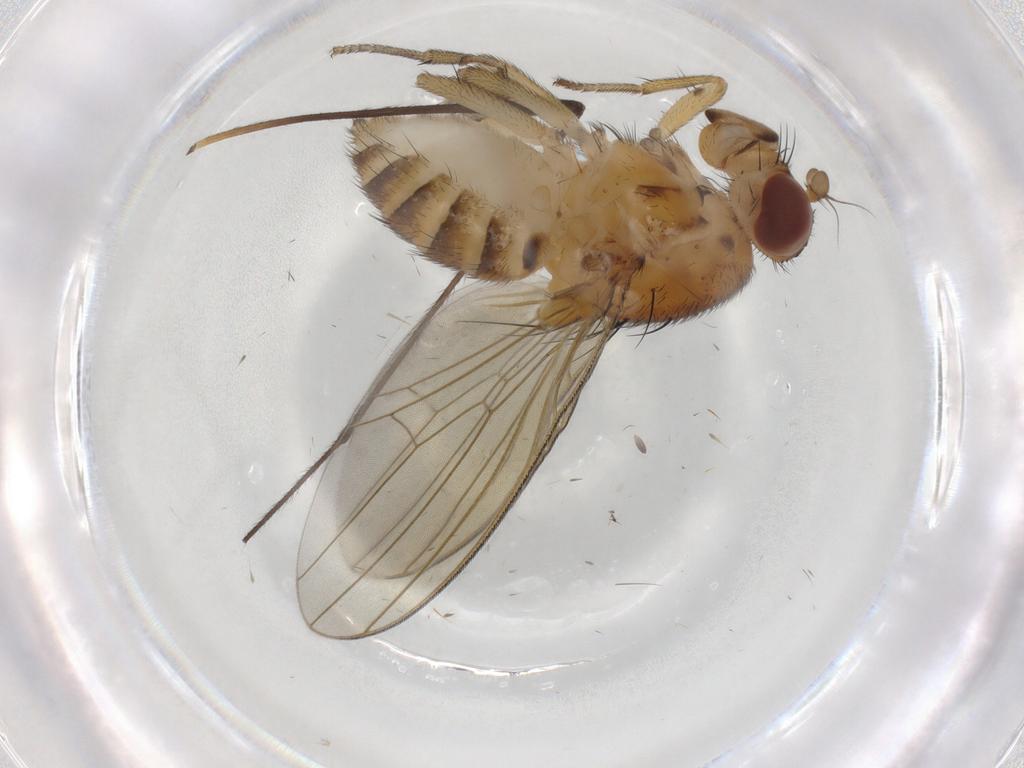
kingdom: Animalia
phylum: Arthropoda
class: Insecta
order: Diptera
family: Lauxaniidae
